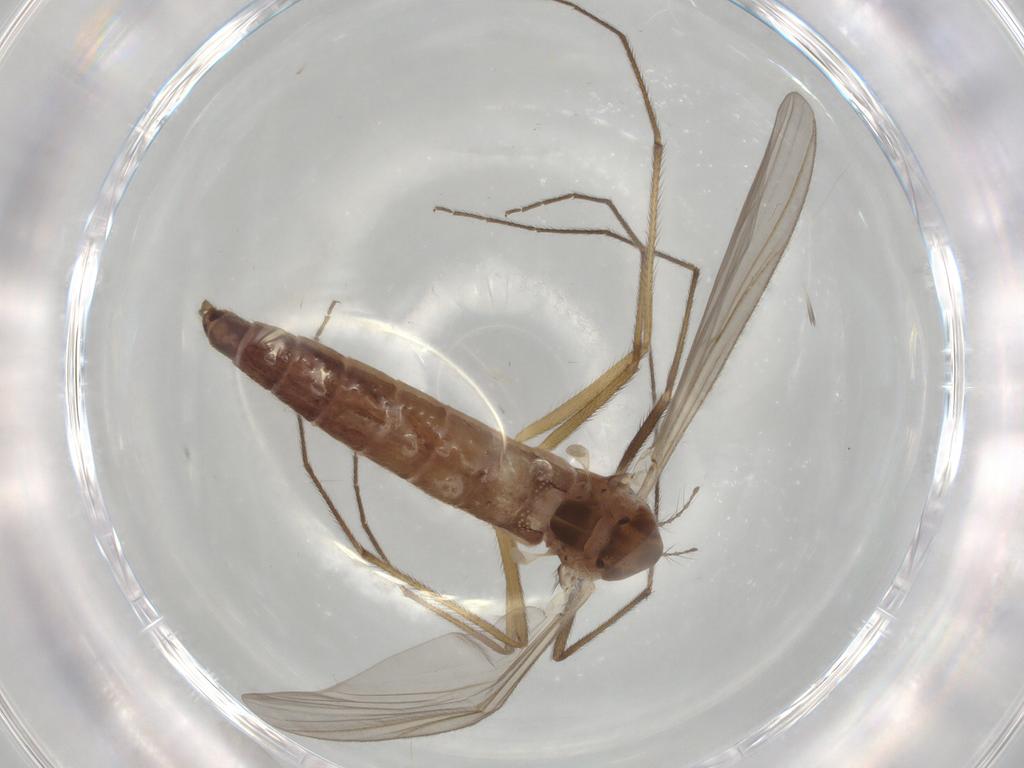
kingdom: Animalia
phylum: Arthropoda
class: Insecta
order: Diptera
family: Chironomidae
